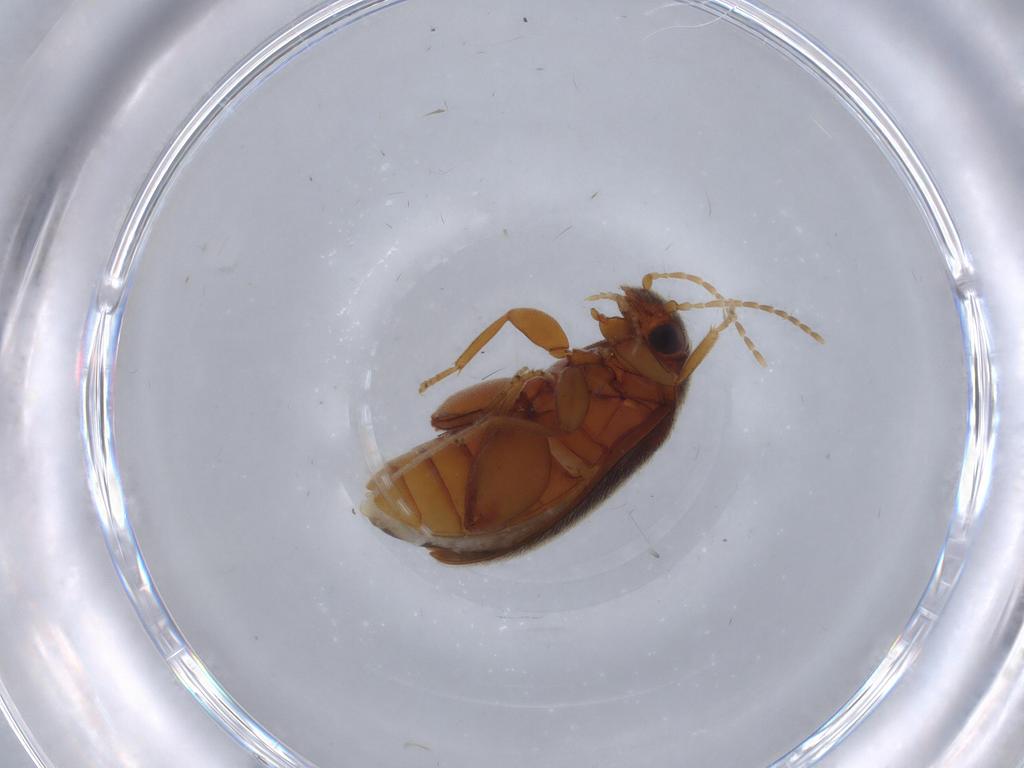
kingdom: Animalia
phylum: Arthropoda
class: Insecta
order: Coleoptera
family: Scirtidae
